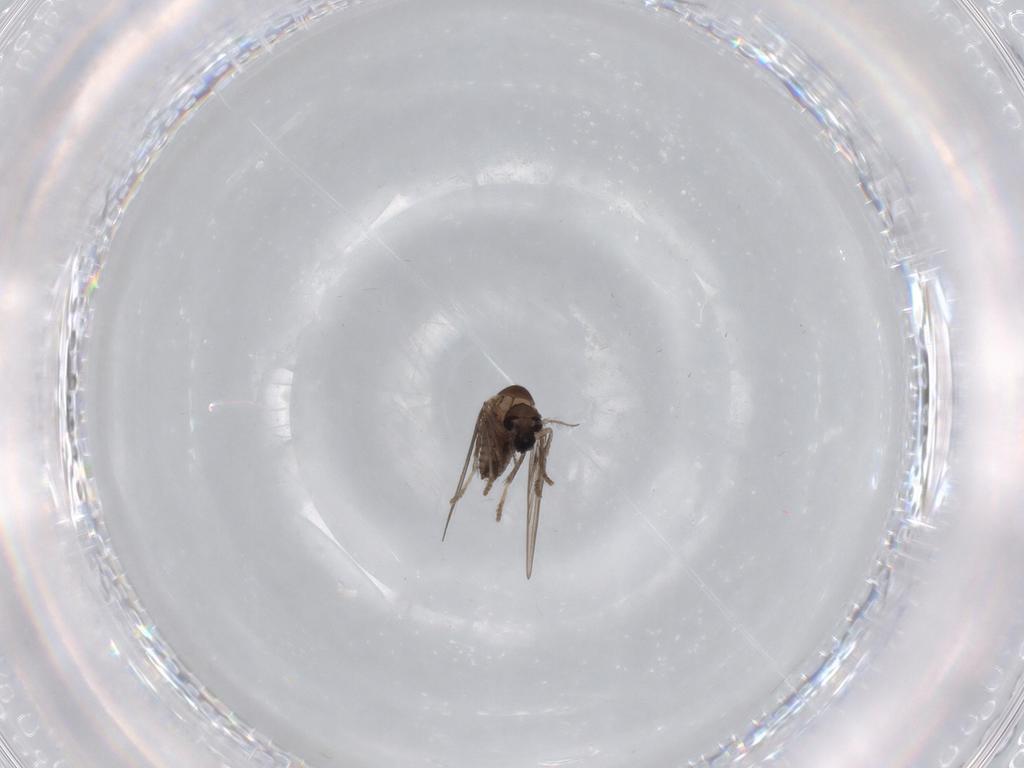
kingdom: Animalia
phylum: Arthropoda
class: Insecta
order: Diptera
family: Psychodidae
